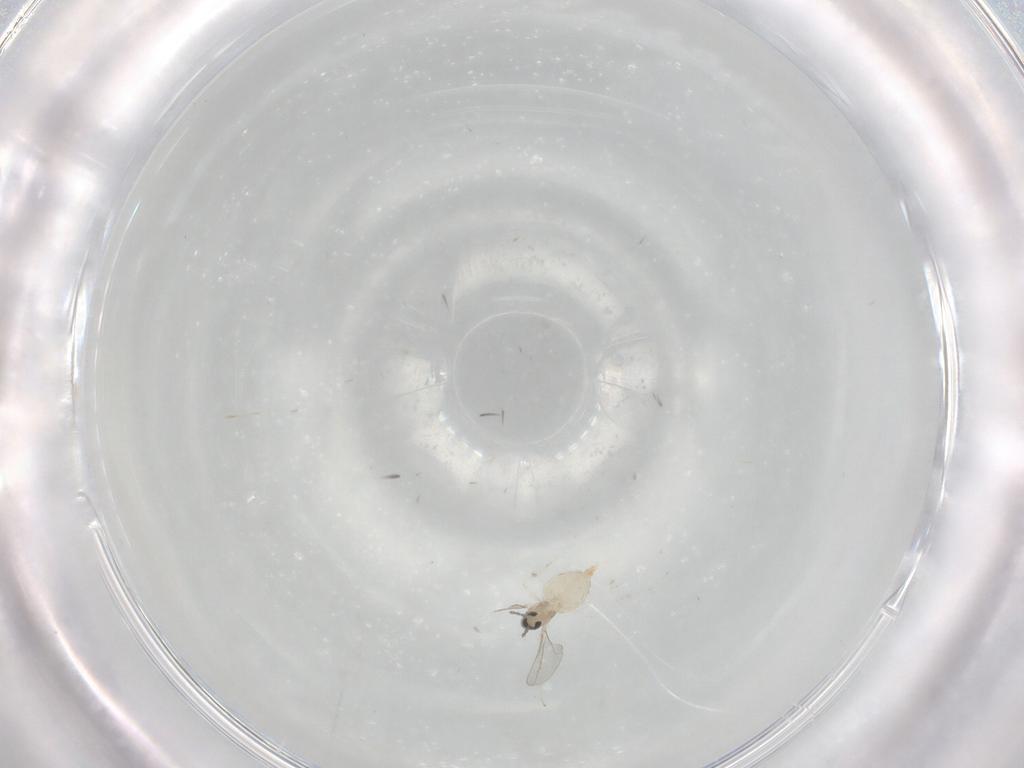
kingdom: Animalia
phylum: Arthropoda
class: Insecta
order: Diptera
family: Cecidomyiidae
